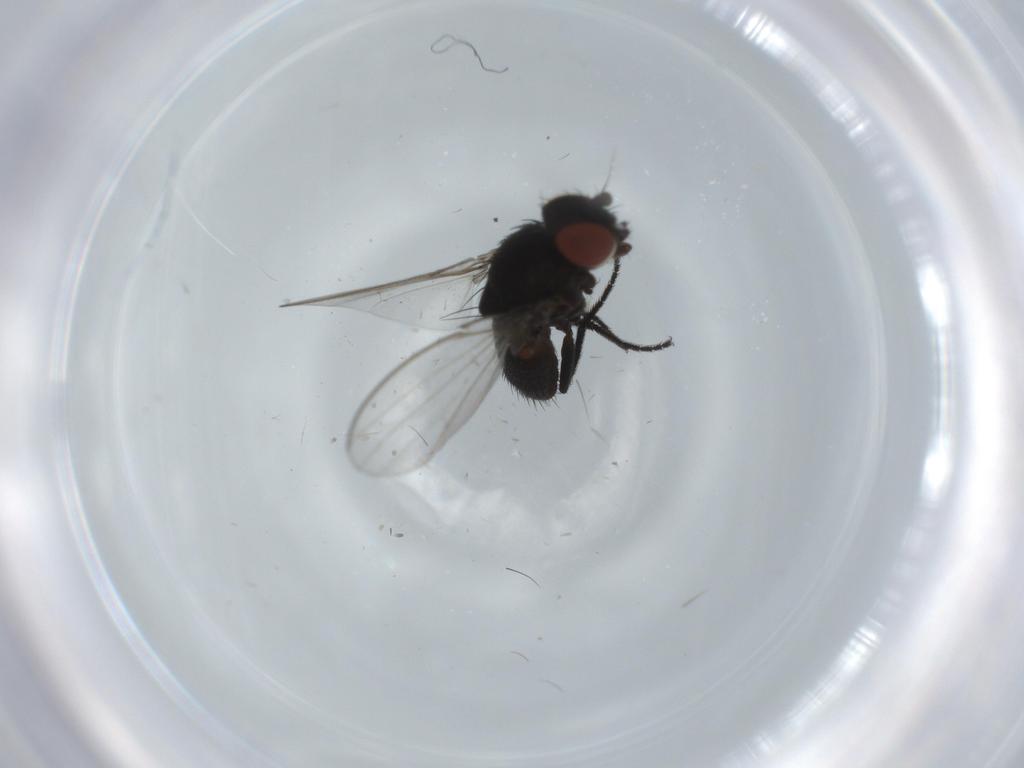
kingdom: Animalia
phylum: Arthropoda
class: Insecta
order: Diptera
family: Milichiidae
